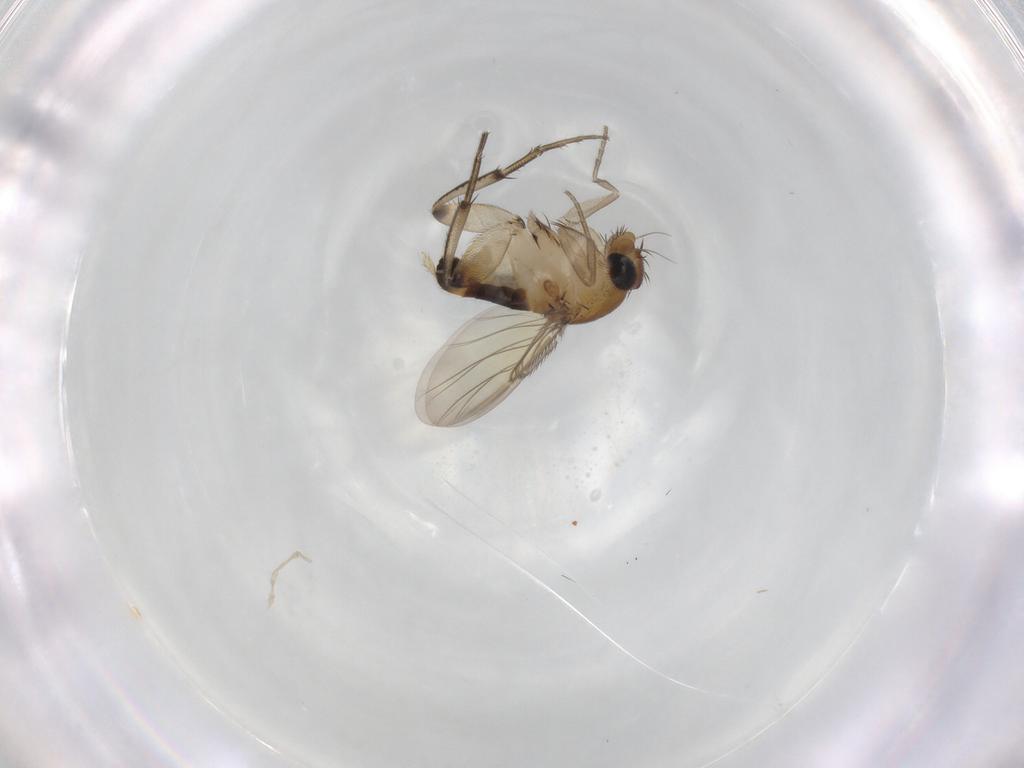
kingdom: Animalia
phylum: Arthropoda
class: Insecta
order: Diptera
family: Phoridae
